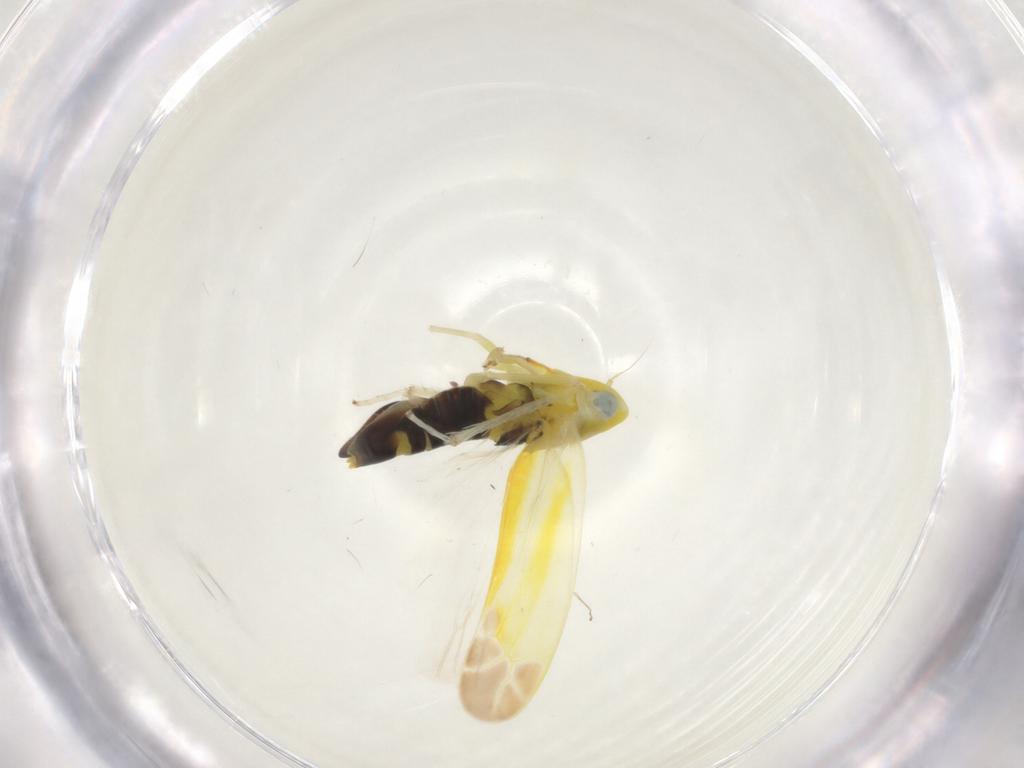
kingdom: Animalia
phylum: Arthropoda
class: Insecta
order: Hemiptera
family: Cicadellidae
